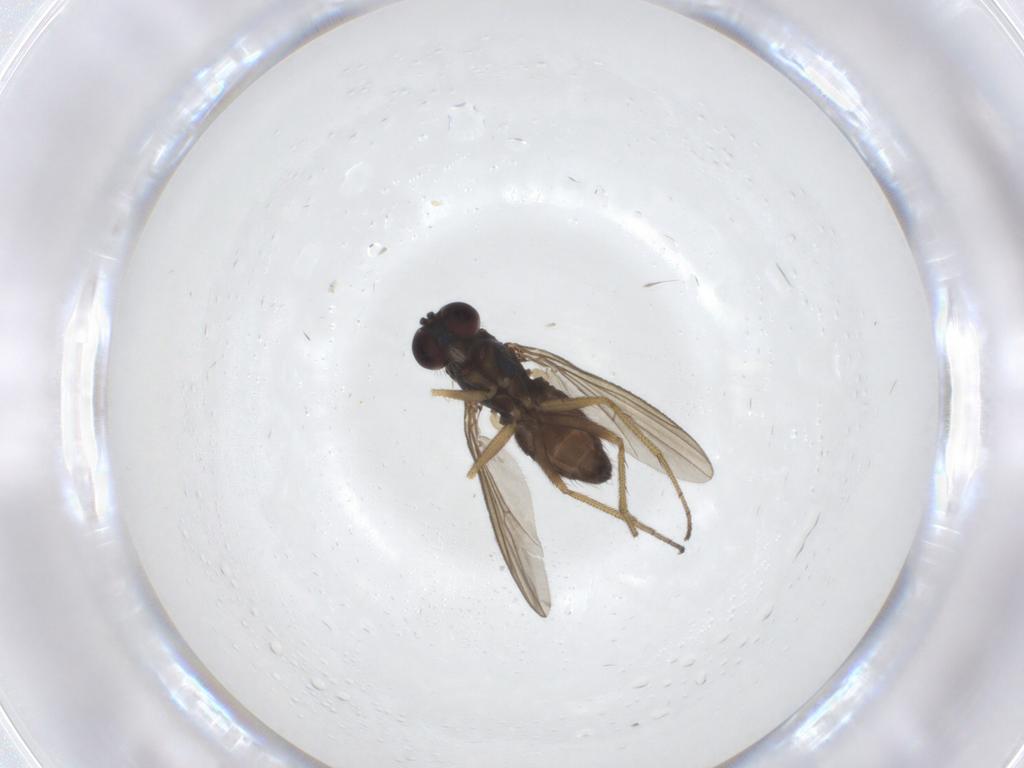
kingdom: Animalia
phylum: Arthropoda
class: Insecta
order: Diptera
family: Dolichopodidae
